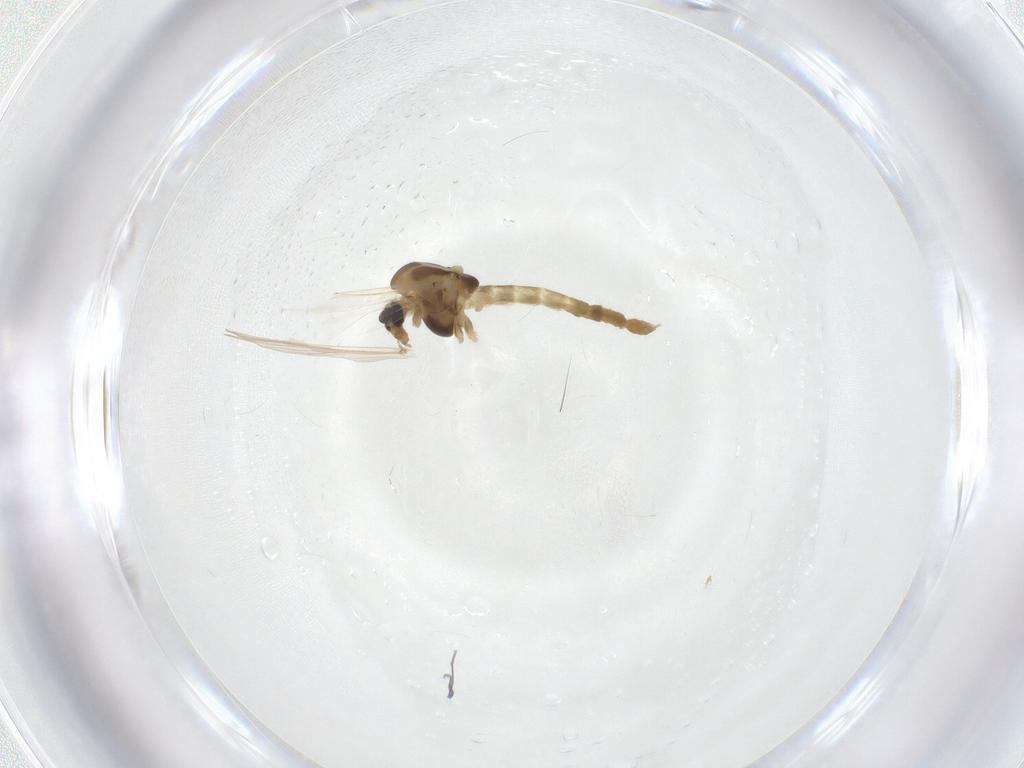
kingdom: Animalia
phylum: Arthropoda
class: Insecta
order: Diptera
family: Chironomidae
